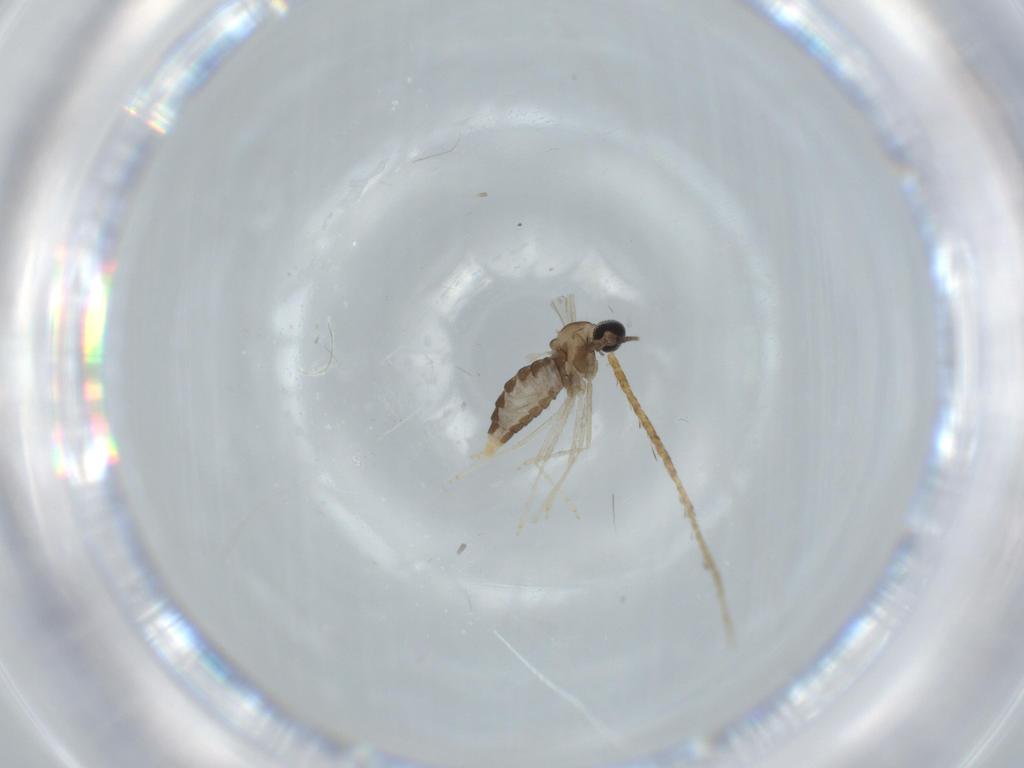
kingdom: Animalia
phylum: Arthropoda
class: Insecta
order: Diptera
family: Cecidomyiidae
